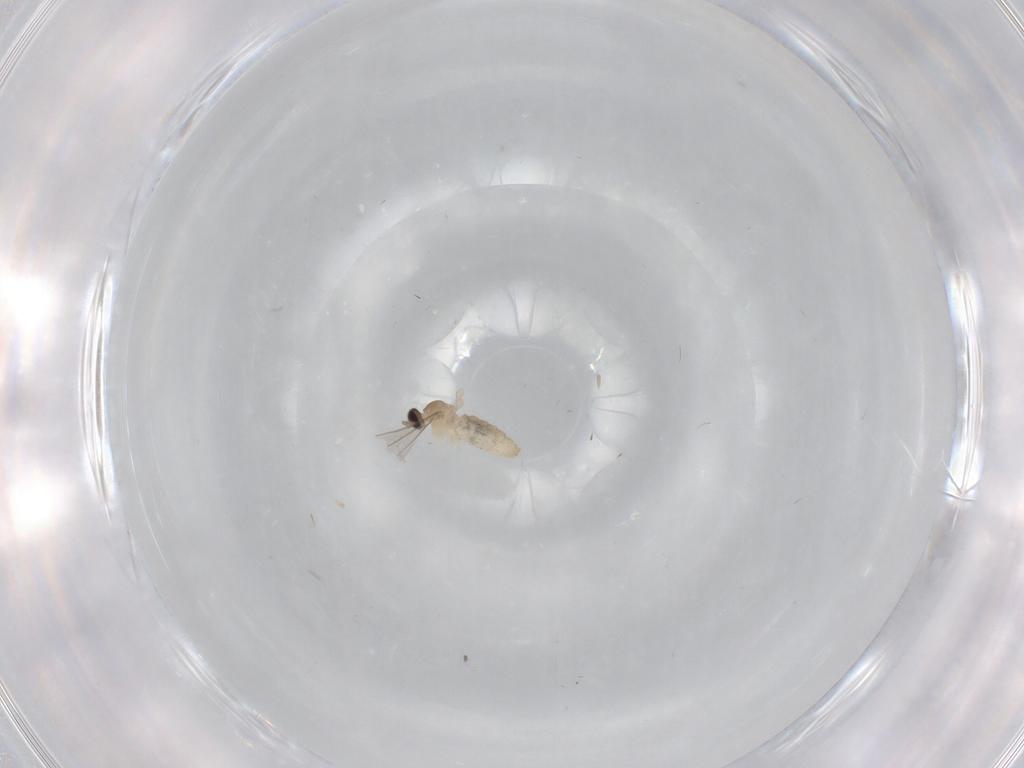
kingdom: Animalia
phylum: Arthropoda
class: Insecta
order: Diptera
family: Cecidomyiidae
